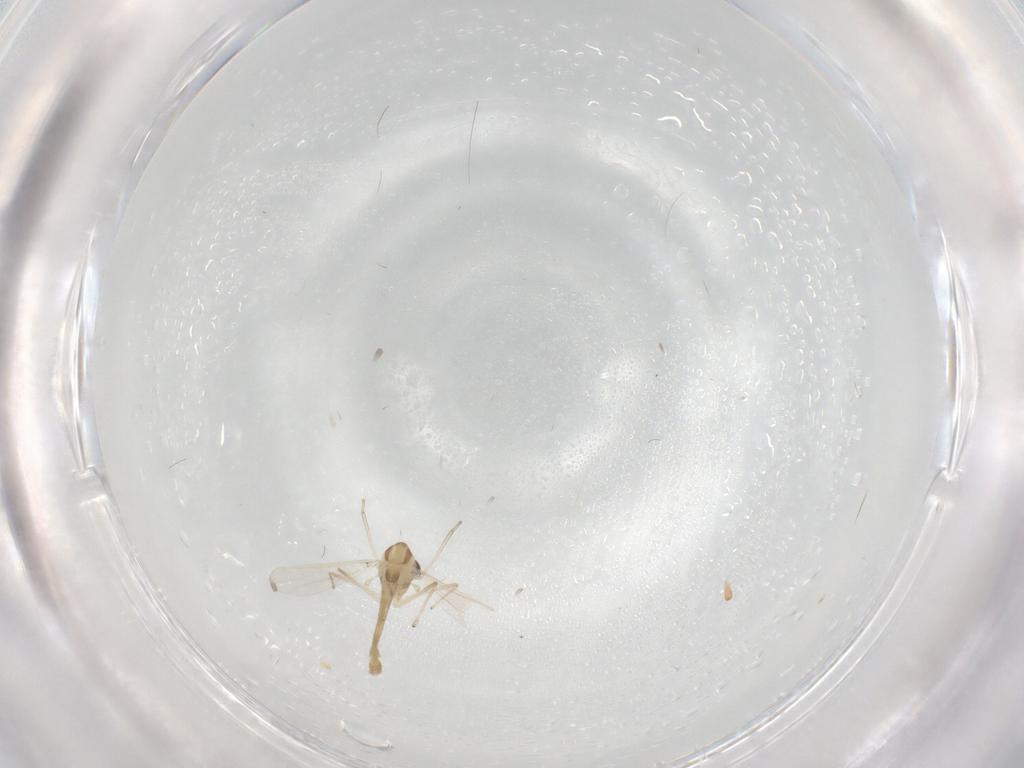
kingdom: Animalia
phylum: Arthropoda
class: Insecta
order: Diptera
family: Chironomidae
